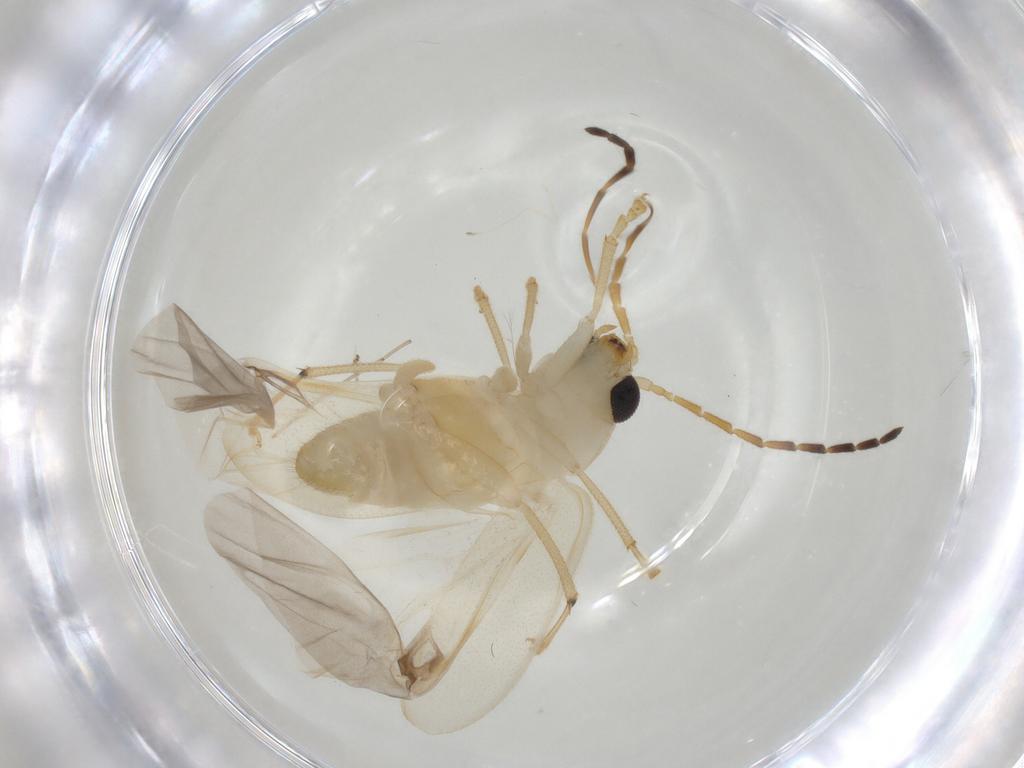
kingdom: Animalia
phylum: Arthropoda
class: Insecta
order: Coleoptera
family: Chrysomelidae
